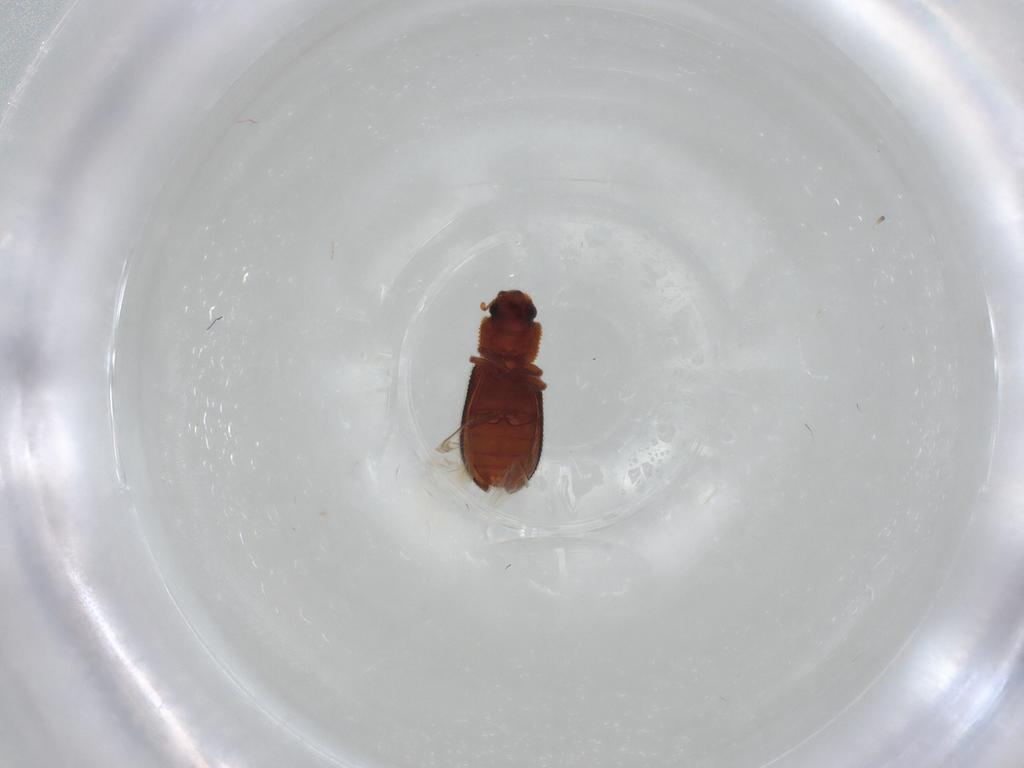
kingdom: Animalia
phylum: Arthropoda
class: Insecta
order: Coleoptera
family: Zopheridae
